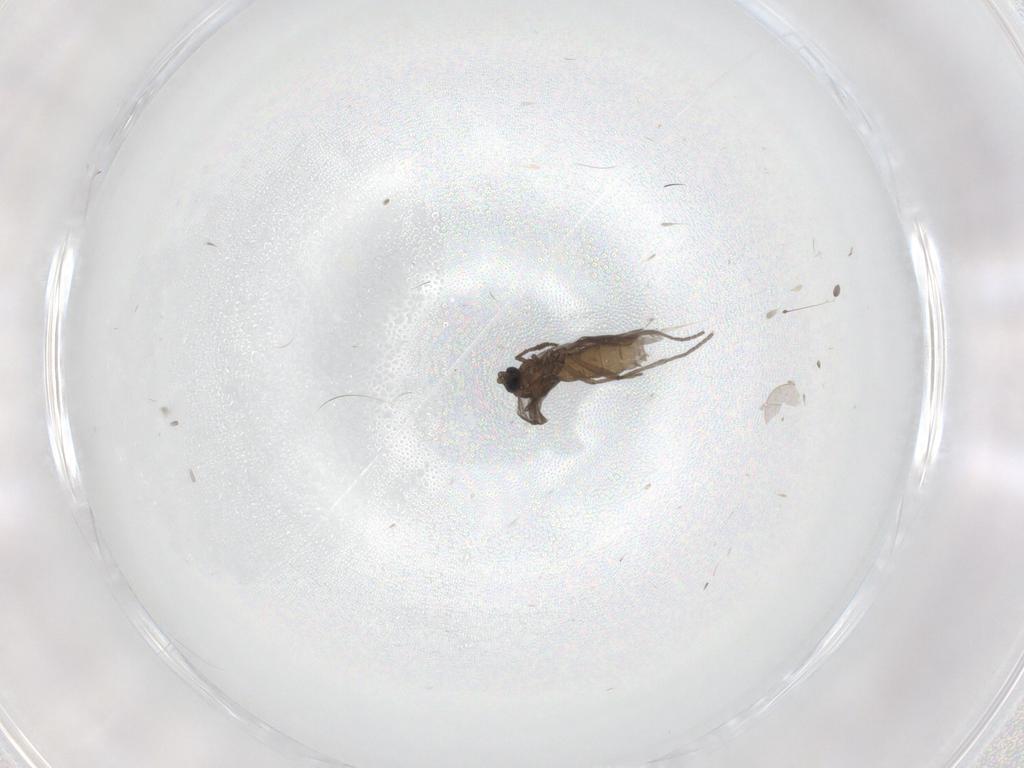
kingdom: Animalia
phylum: Arthropoda
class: Insecta
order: Diptera
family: Sciaridae
